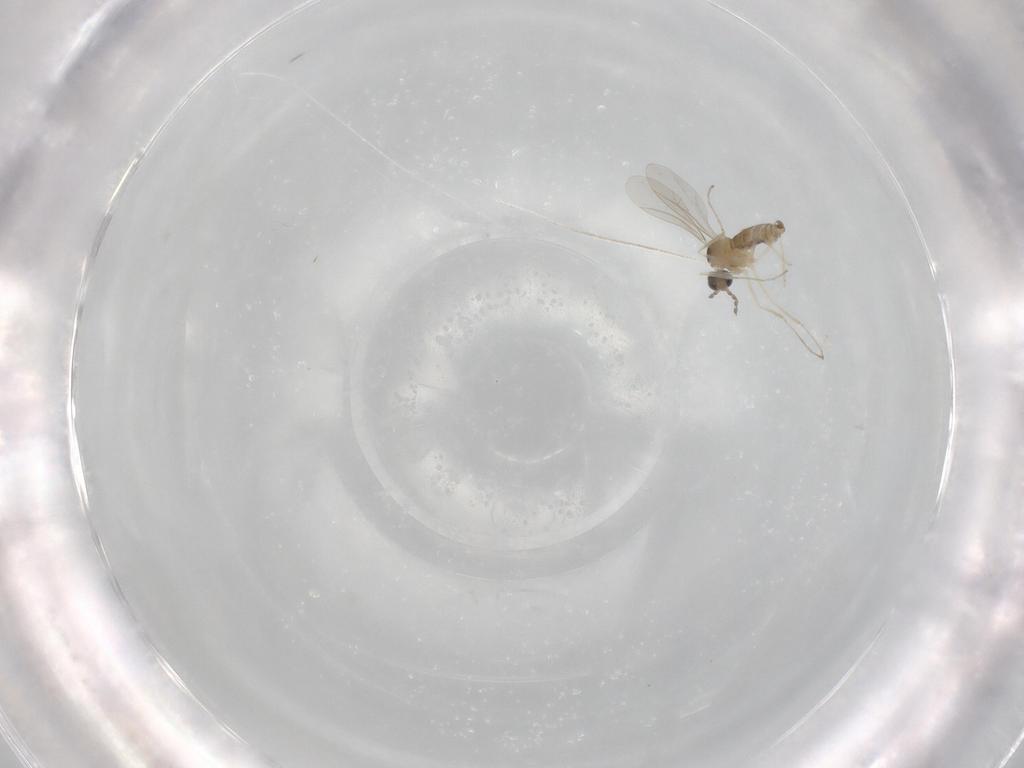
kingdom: Animalia
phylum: Arthropoda
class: Insecta
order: Diptera
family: Cecidomyiidae
